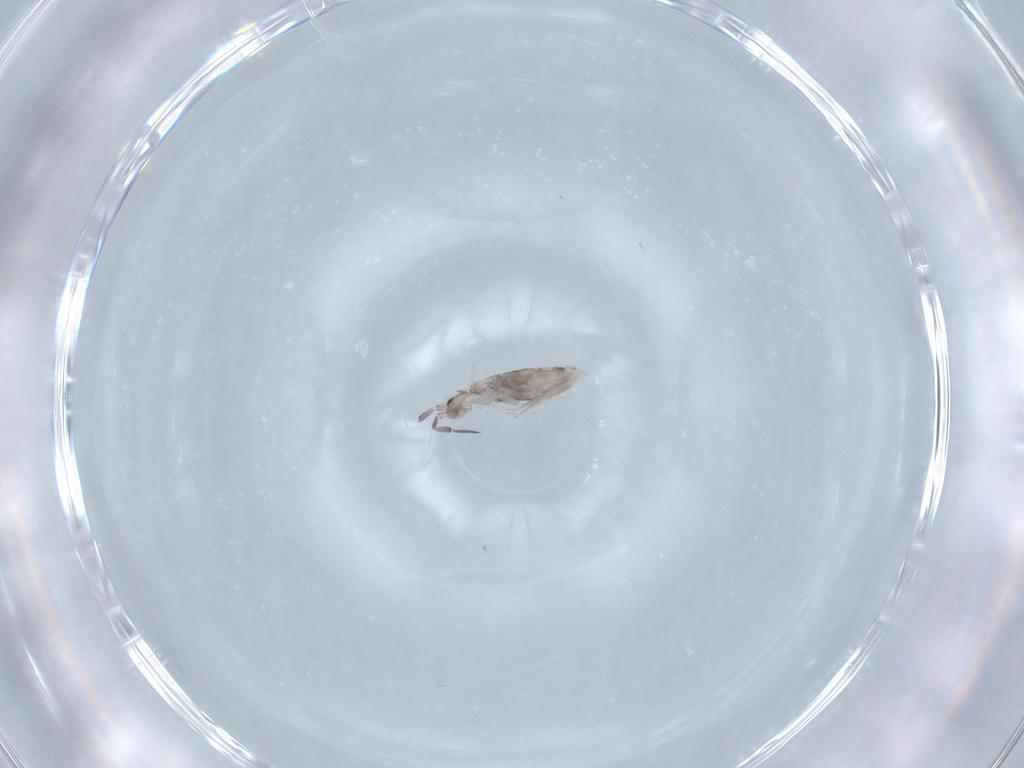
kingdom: Animalia
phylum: Arthropoda
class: Collembola
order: Poduromorpha
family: Hypogastruridae
